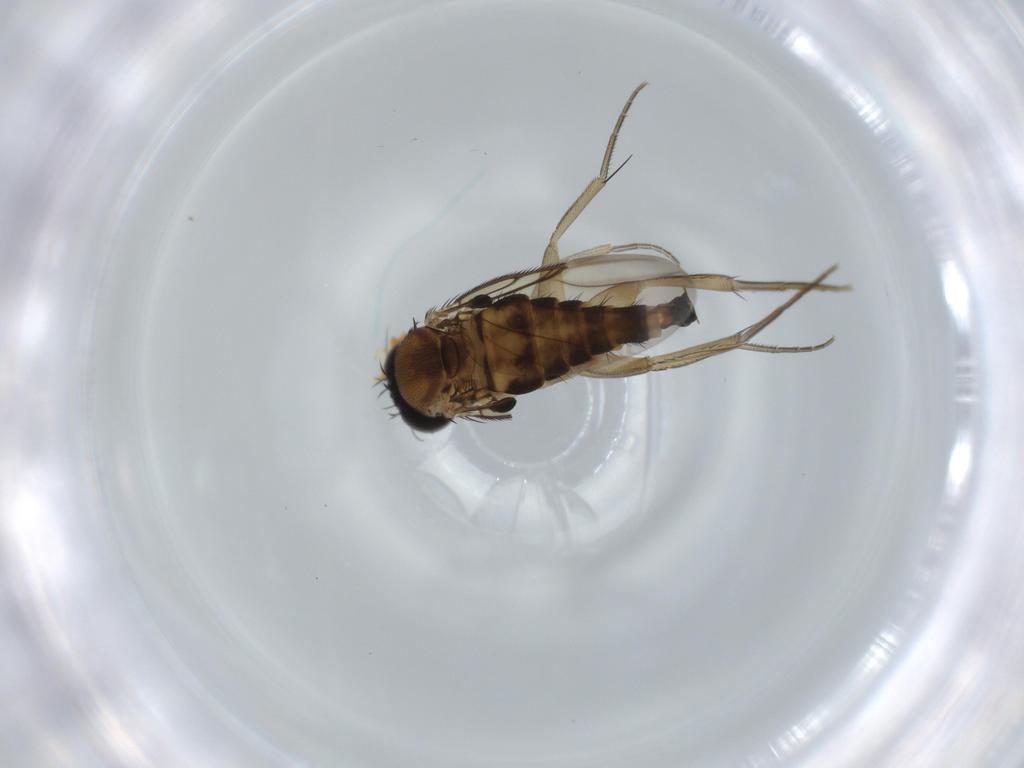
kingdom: Animalia
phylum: Arthropoda
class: Insecta
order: Diptera
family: Phoridae
